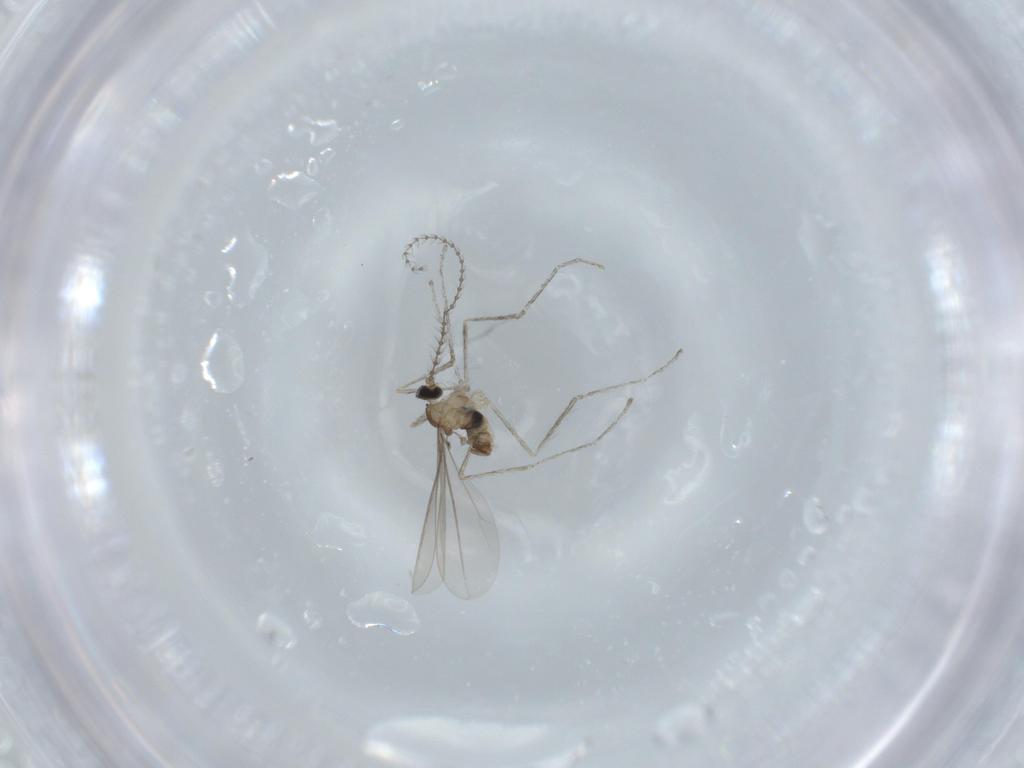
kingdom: Animalia
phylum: Arthropoda
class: Insecta
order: Diptera
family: Cecidomyiidae
